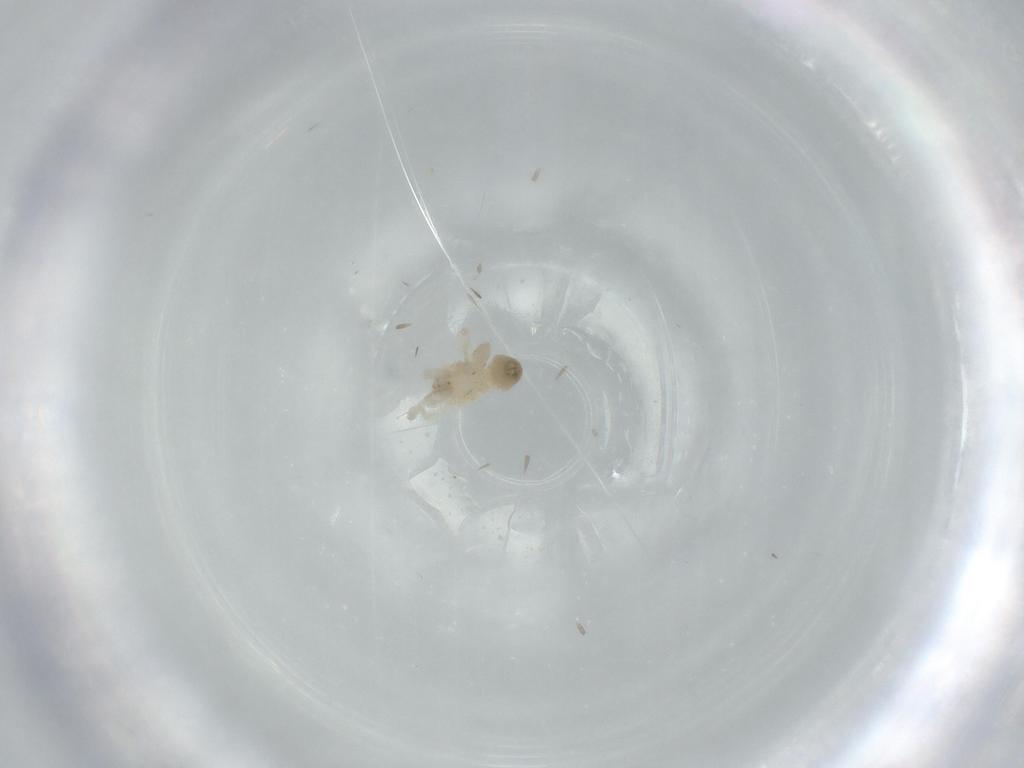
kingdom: Animalia
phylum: Arthropoda
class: Arachnida
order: Araneae
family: Oonopidae
